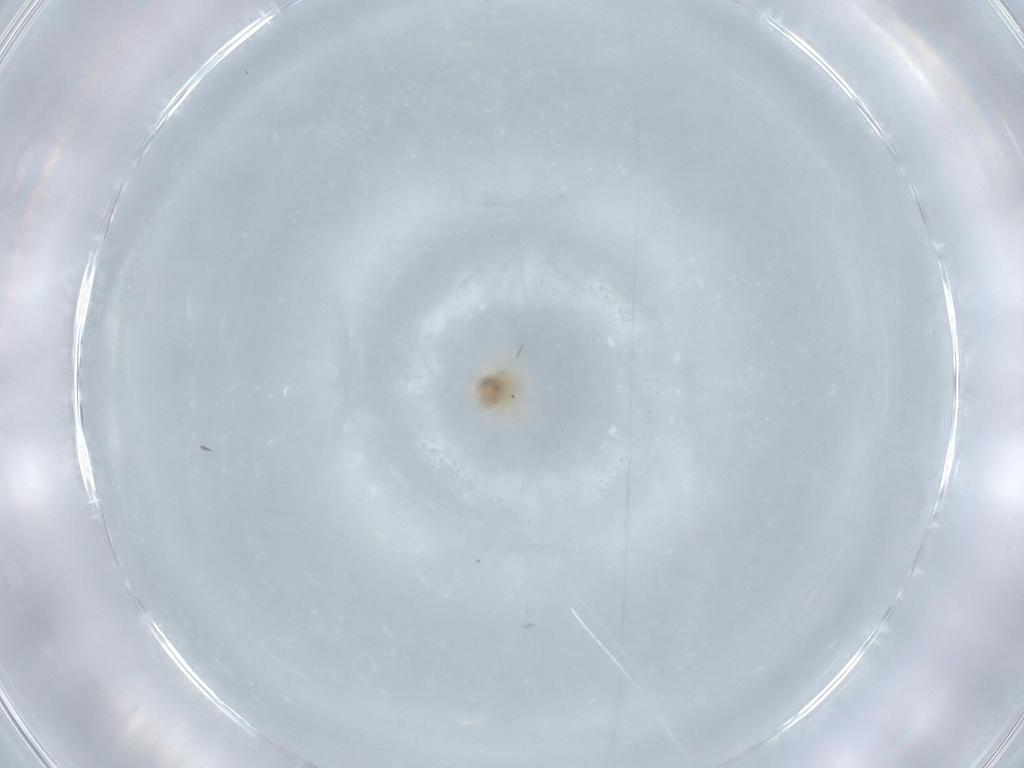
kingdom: Animalia
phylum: Arthropoda
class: Arachnida
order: Trombidiformes
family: Anystidae
